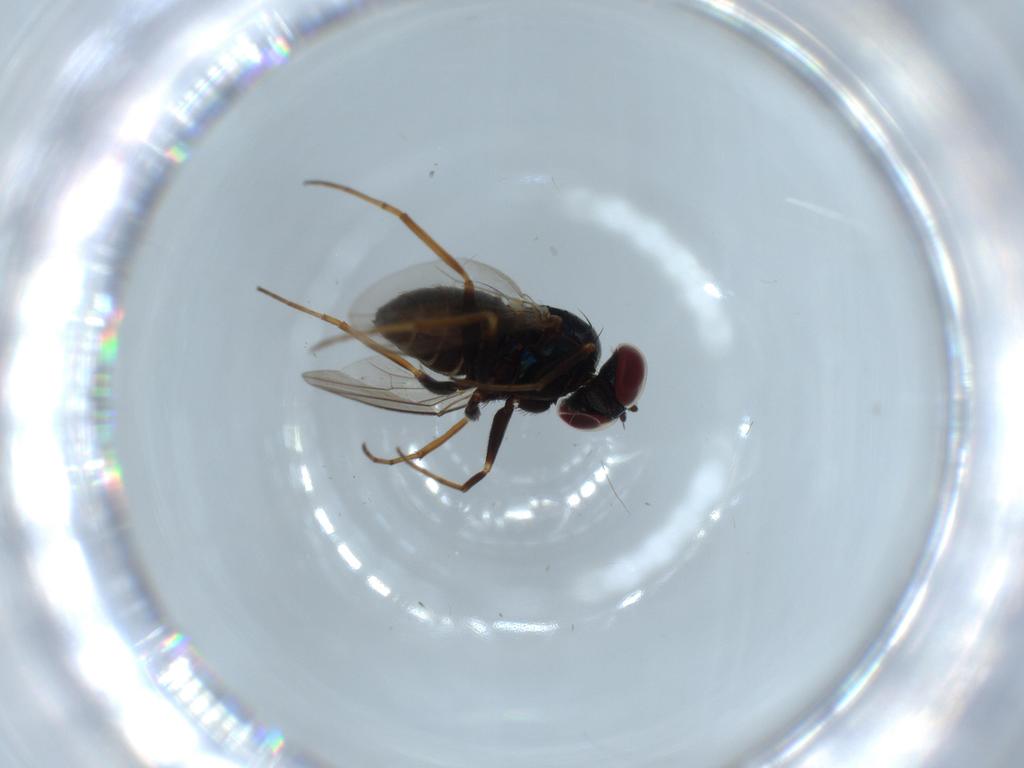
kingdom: Animalia
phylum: Arthropoda
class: Insecta
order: Diptera
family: Dolichopodidae
